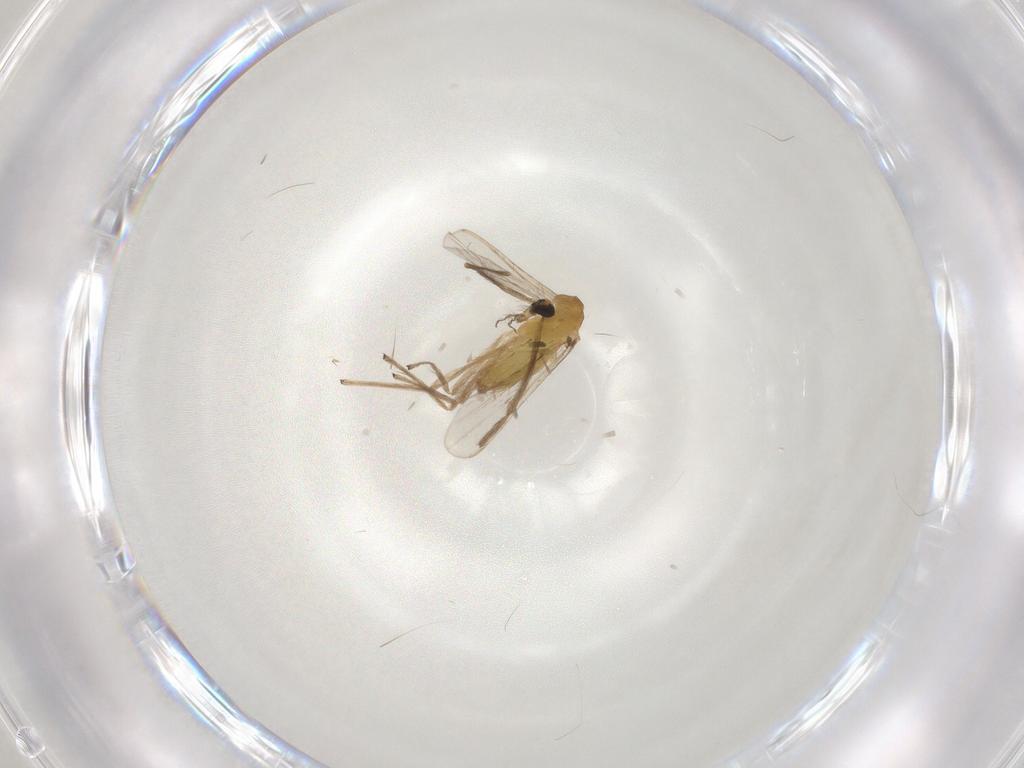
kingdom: Animalia
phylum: Arthropoda
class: Insecta
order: Diptera
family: Chironomidae
